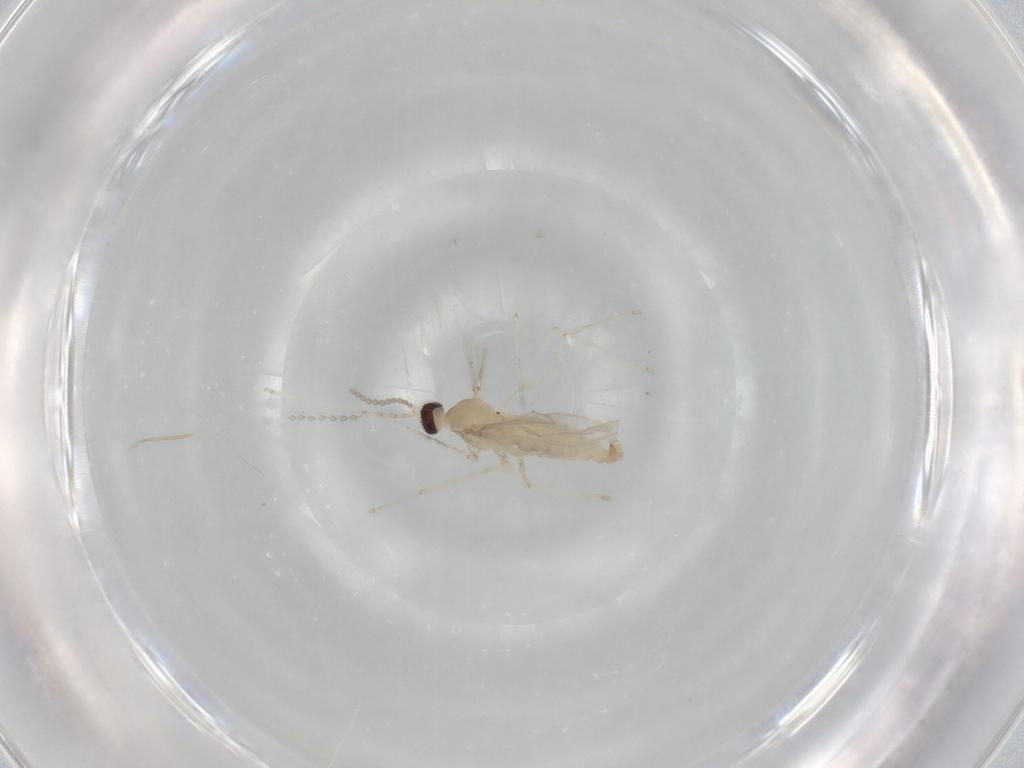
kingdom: Animalia
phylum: Arthropoda
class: Insecta
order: Diptera
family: Cecidomyiidae
